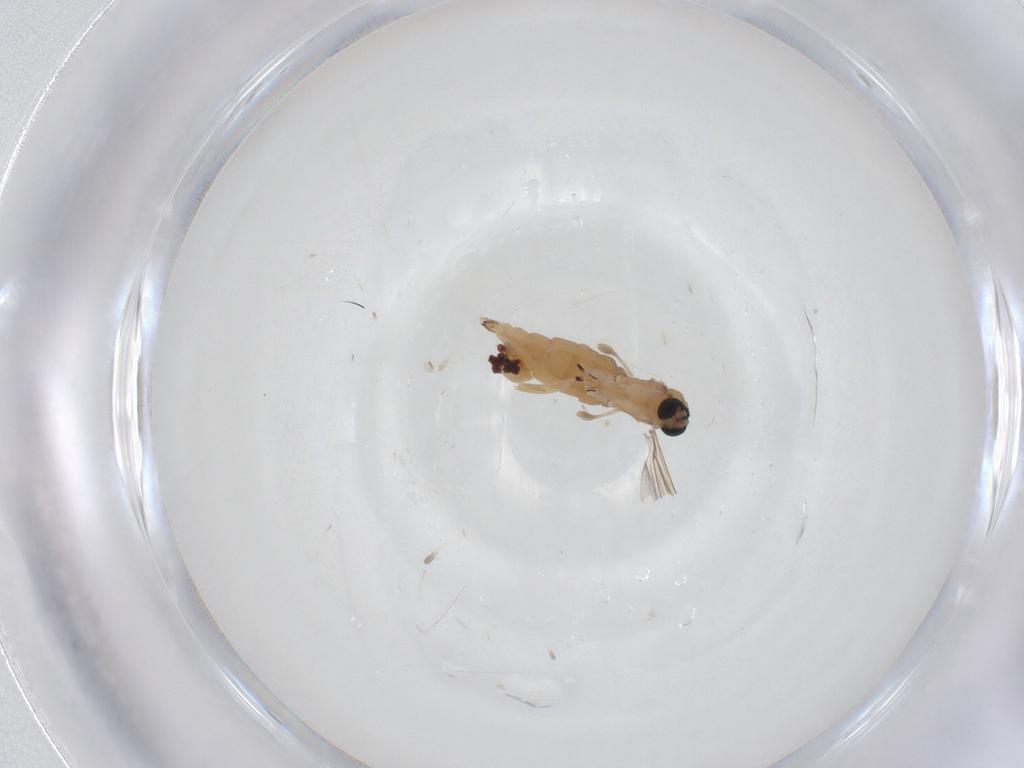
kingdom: Animalia
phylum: Arthropoda
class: Insecta
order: Diptera
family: Sciaridae
